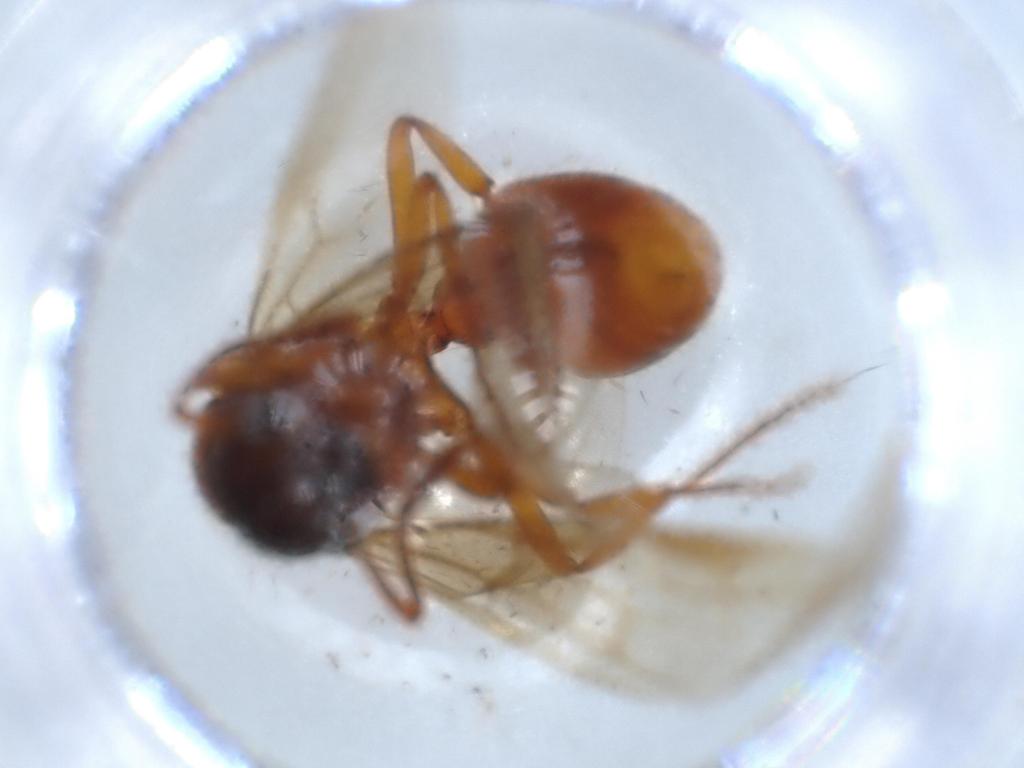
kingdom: Animalia
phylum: Arthropoda
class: Insecta
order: Hymenoptera
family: Formicidae
